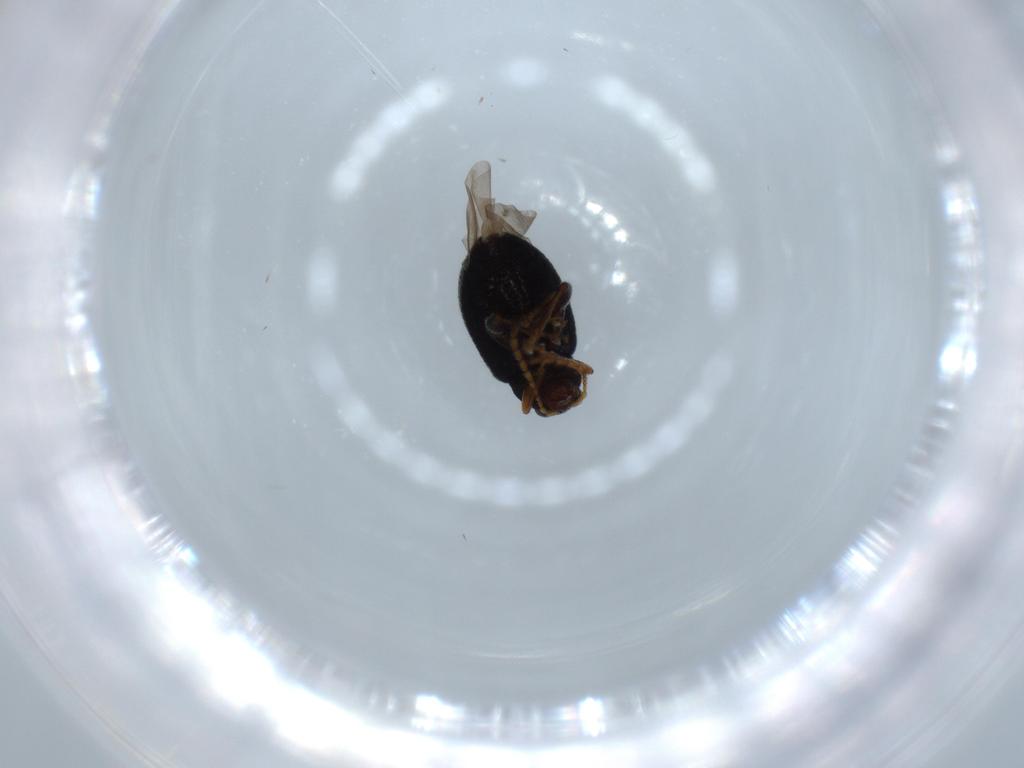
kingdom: Animalia
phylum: Arthropoda
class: Insecta
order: Coleoptera
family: Chrysomelidae
